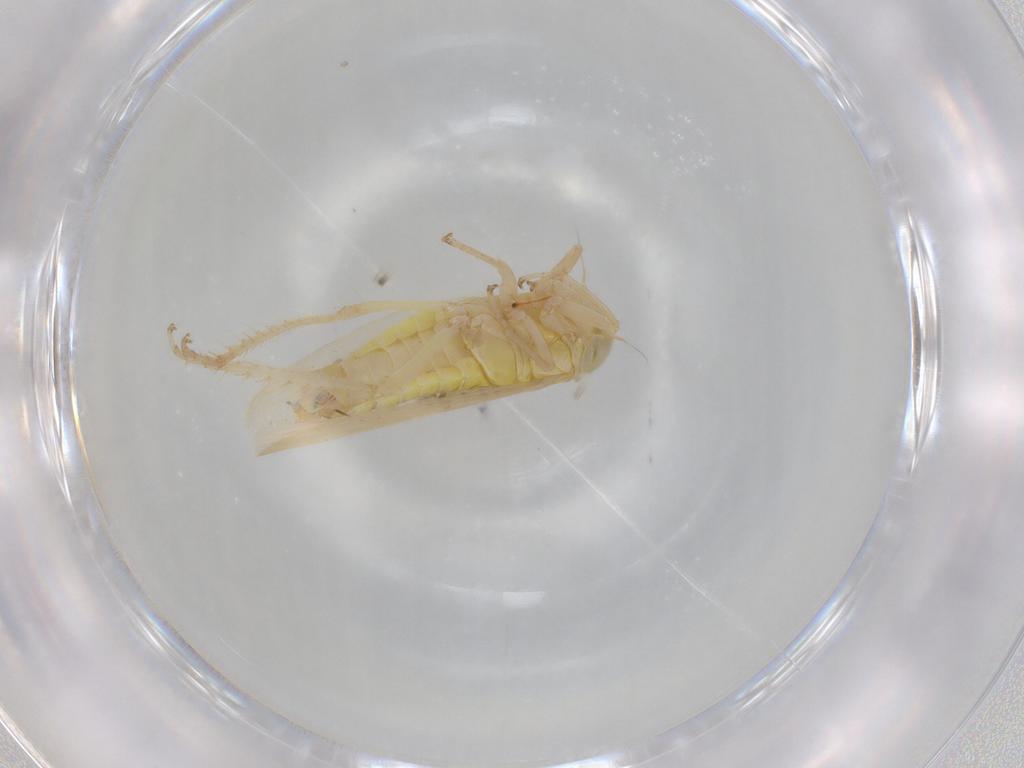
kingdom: Animalia
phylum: Arthropoda
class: Insecta
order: Hemiptera
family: Cicadellidae
